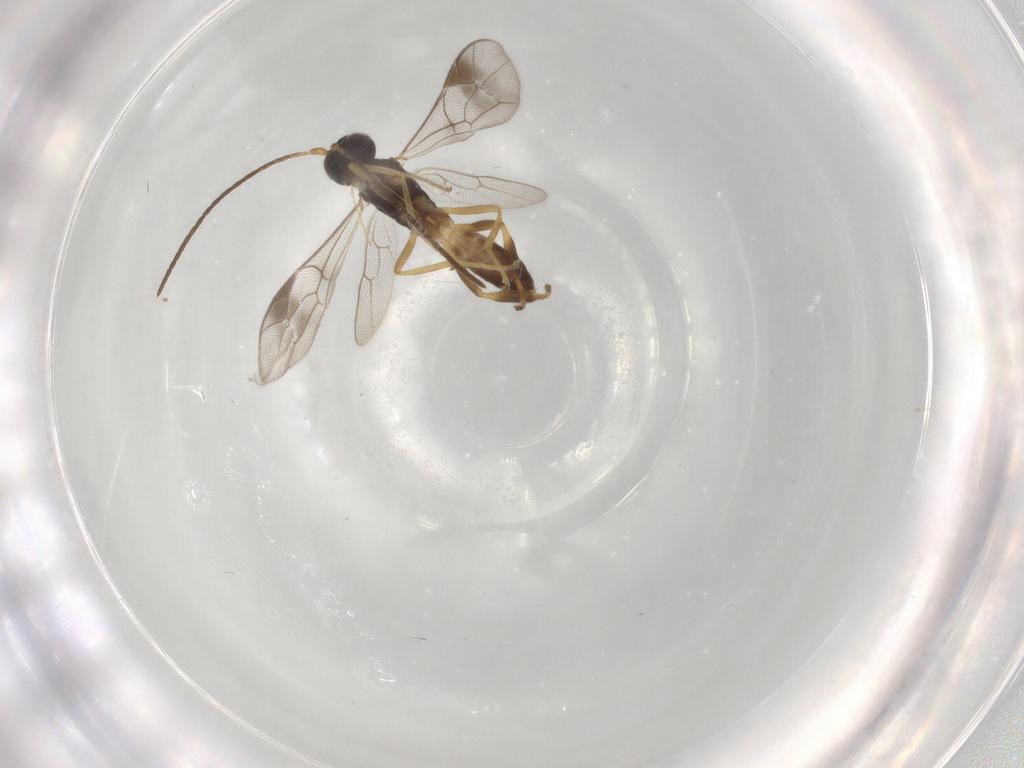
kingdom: Animalia
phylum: Arthropoda
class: Insecta
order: Hymenoptera
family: Ichneumonidae
